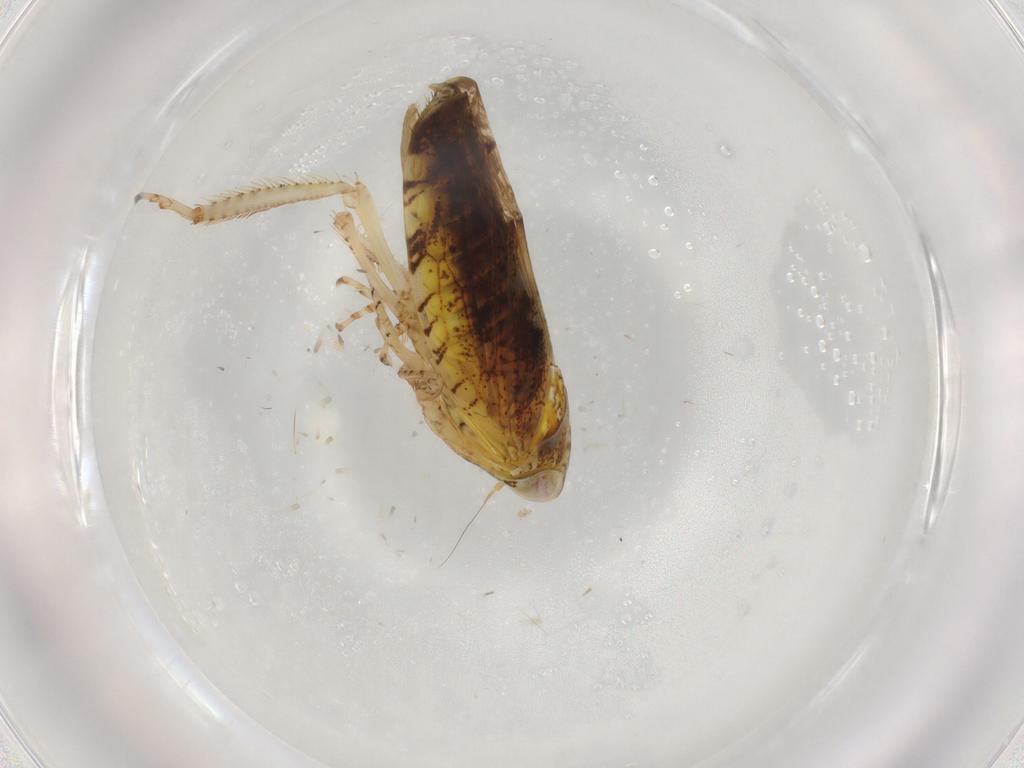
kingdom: Animalia
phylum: Arthropoda
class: Insecta
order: Hemiptera
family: Cicadellidae
